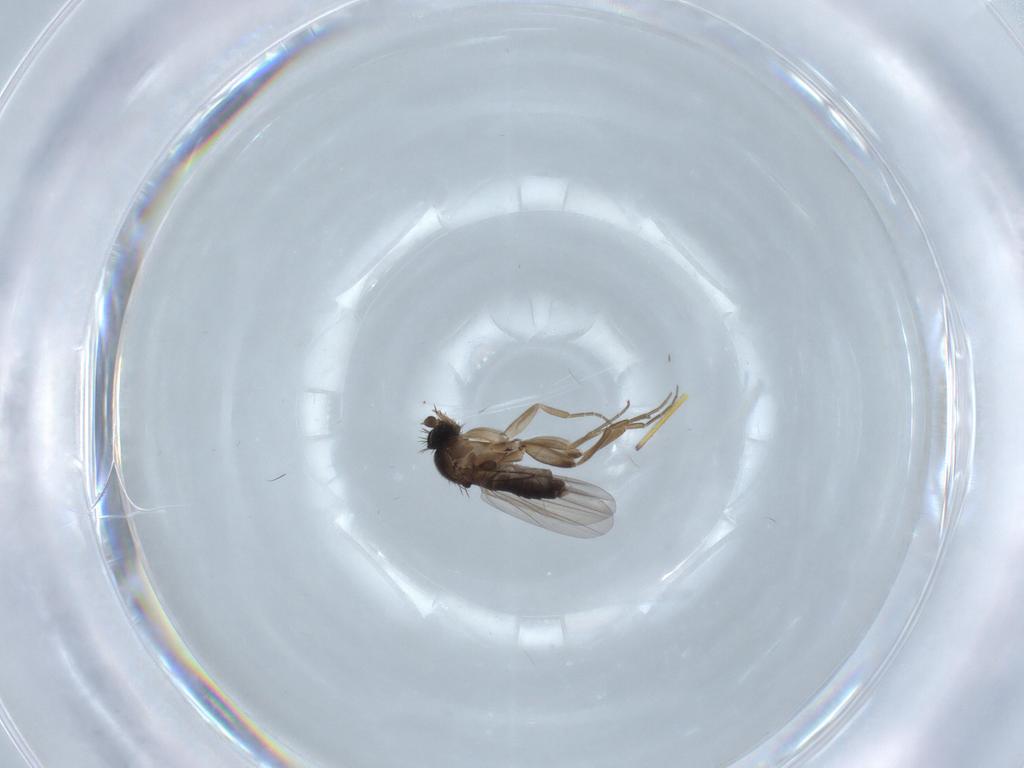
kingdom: Animalia
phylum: Arthropoda
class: Insecta
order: Diptera
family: Phoridae
